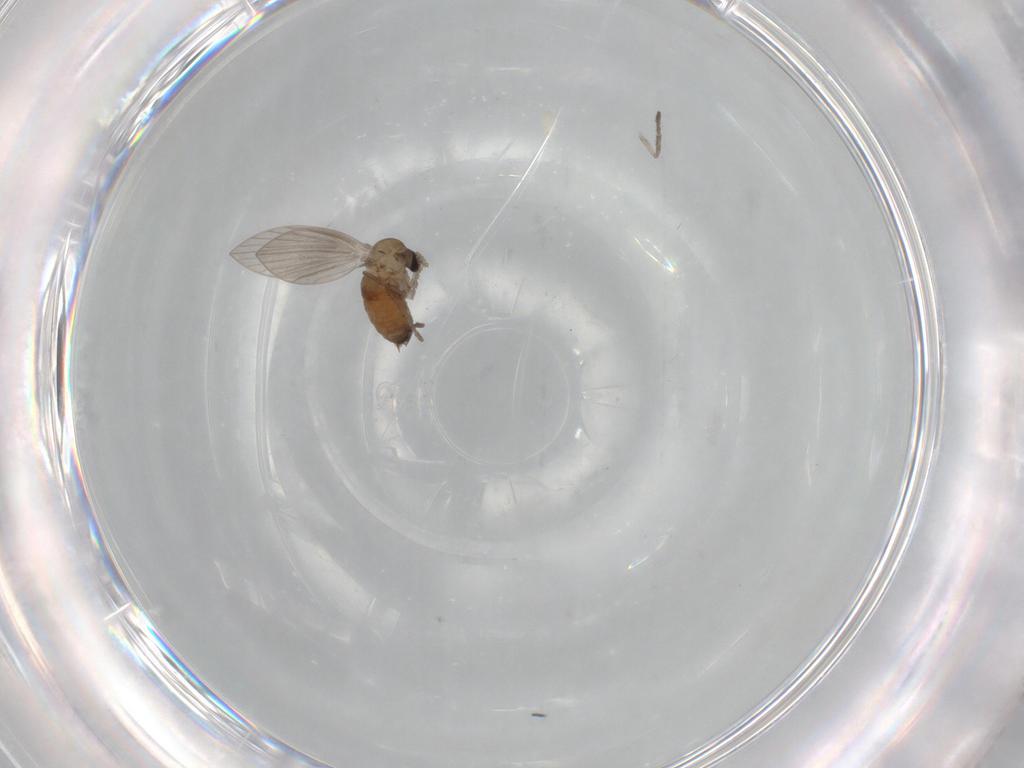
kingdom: Animalia
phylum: Arthropoda
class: Insecta
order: Diptera
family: Psychodidae
